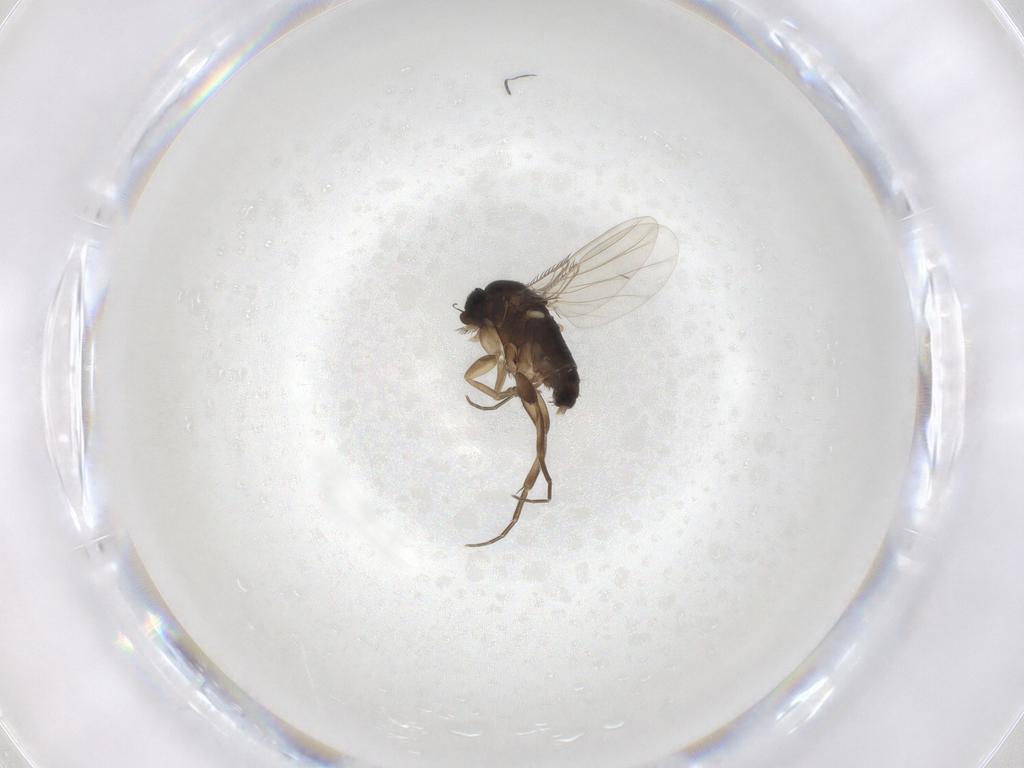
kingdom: Animalia
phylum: Arthropoda
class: Insecta
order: Diptera
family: Phoridae
